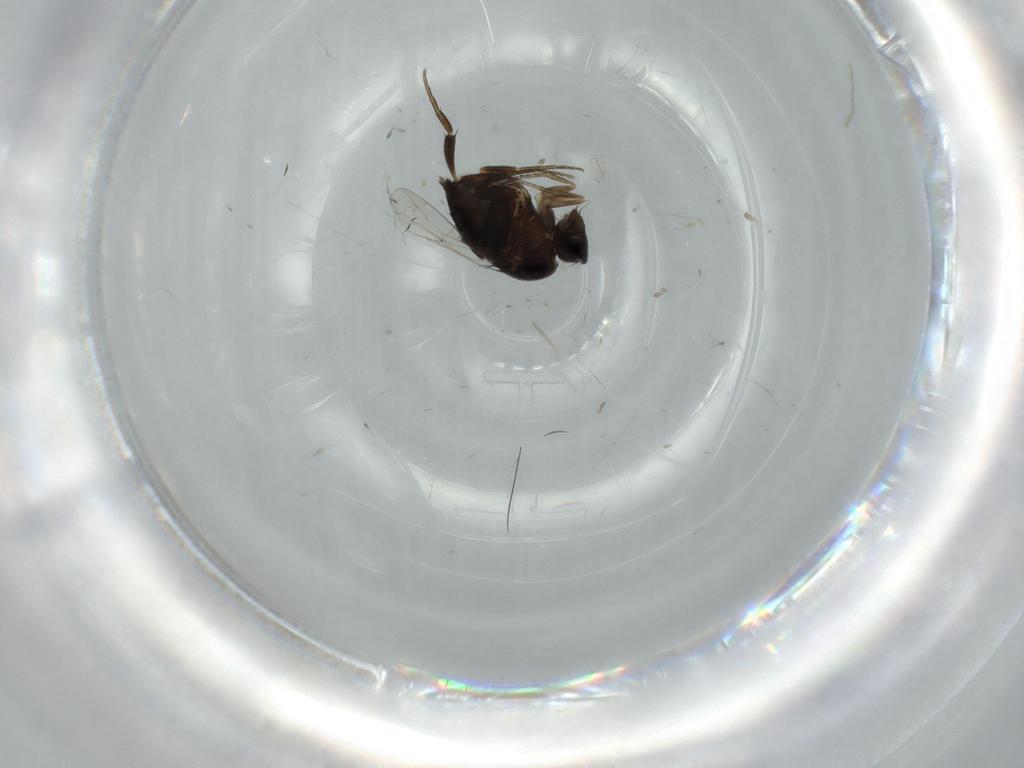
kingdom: Animalia
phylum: Arthropoda
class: Insecta
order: Diptera
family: Phoridae
